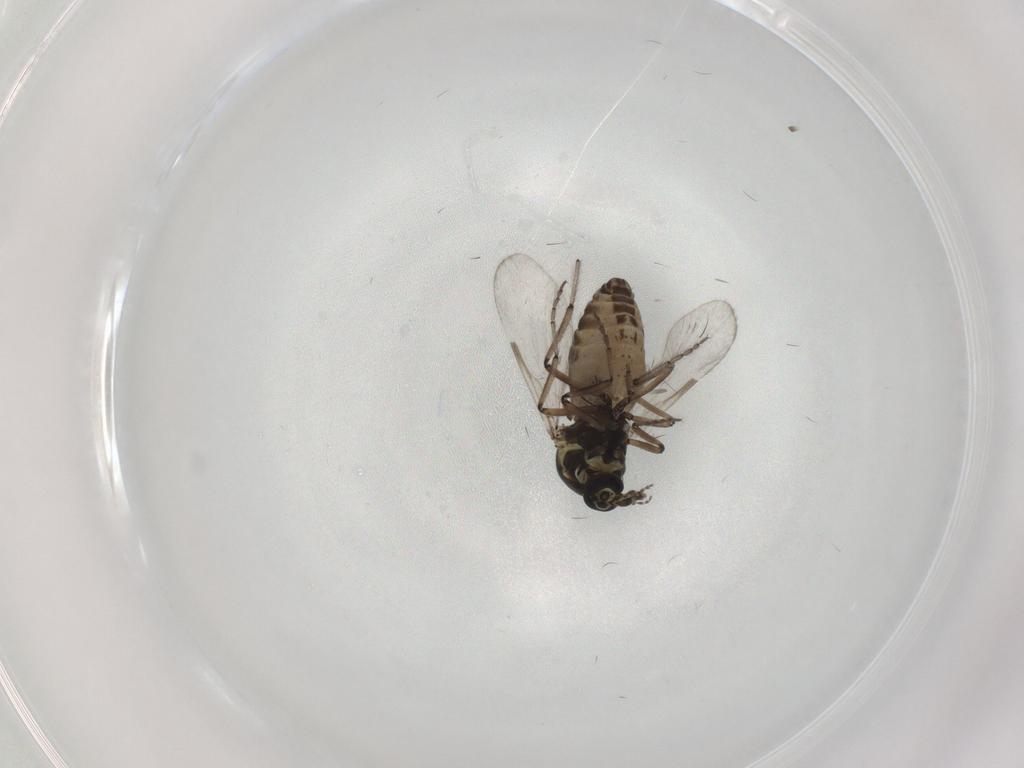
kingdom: Animalia
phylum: Arthropoda
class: Insecta
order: Diptera
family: Ceratopogonidae
